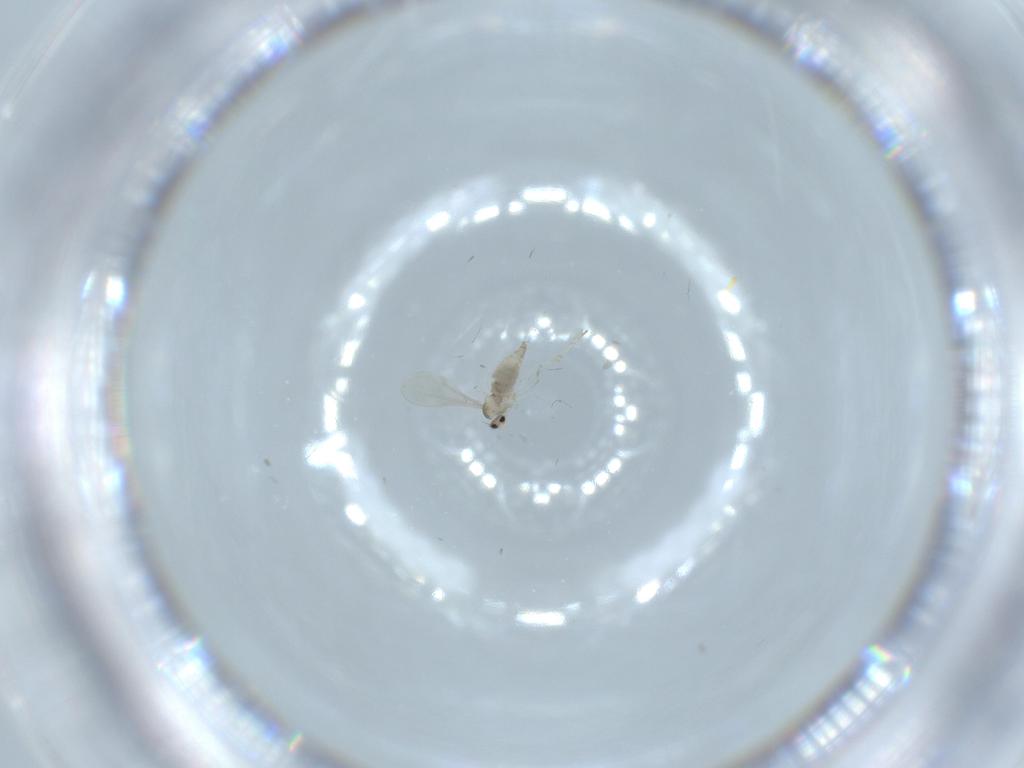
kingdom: Animalia
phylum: Arthropoda
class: Insecta
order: Diptera
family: Cecidomyiidae
